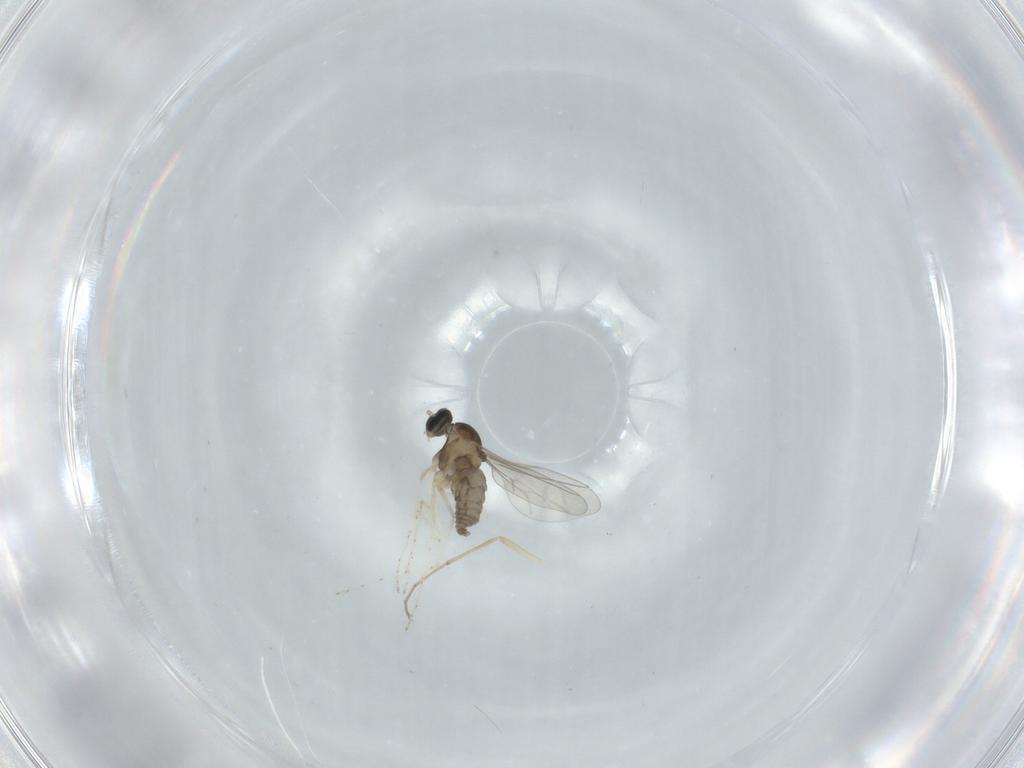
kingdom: Animalia
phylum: Arthropoda
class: Insecta
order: Diptera
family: Cecidomyiidae
